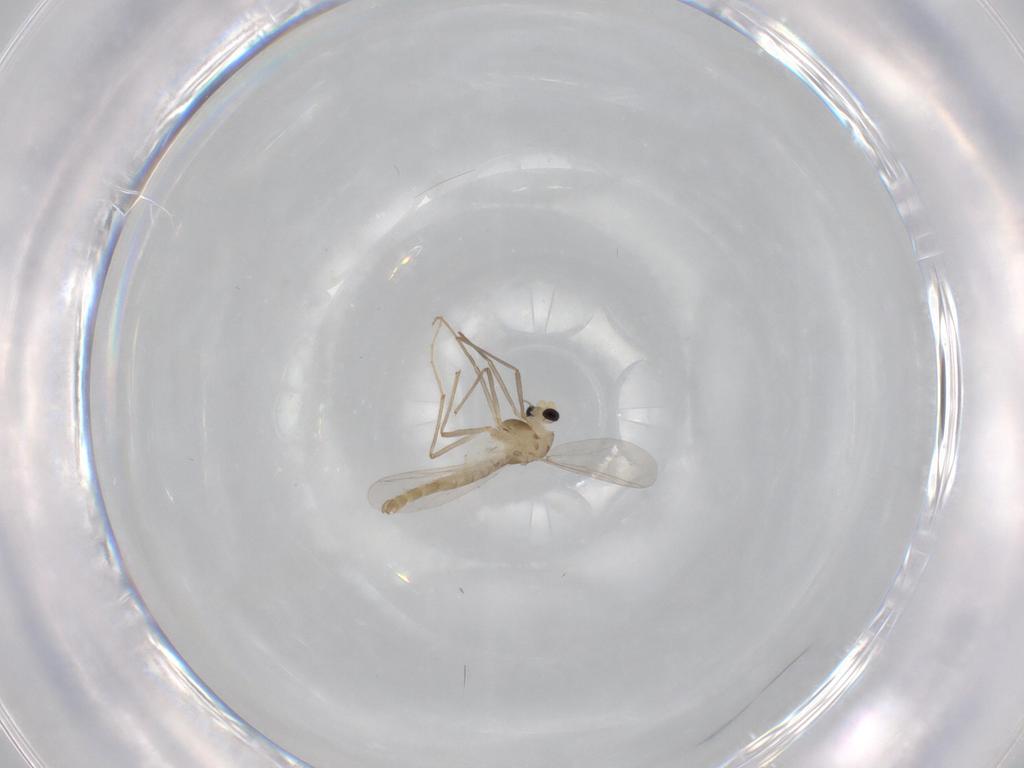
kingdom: Animalia
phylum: Arthropoda
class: Insecta
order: Diptera
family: Chironomidae
